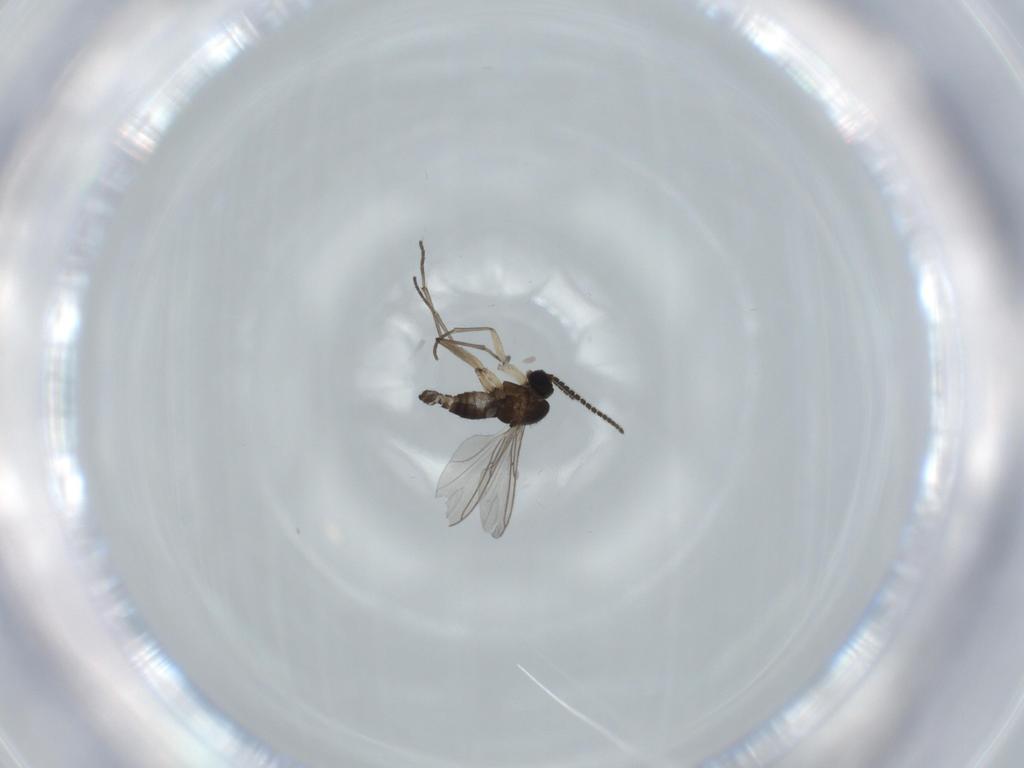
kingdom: Animalia
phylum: Arthropoda
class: Insecta
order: Diptera
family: Sciaridae
